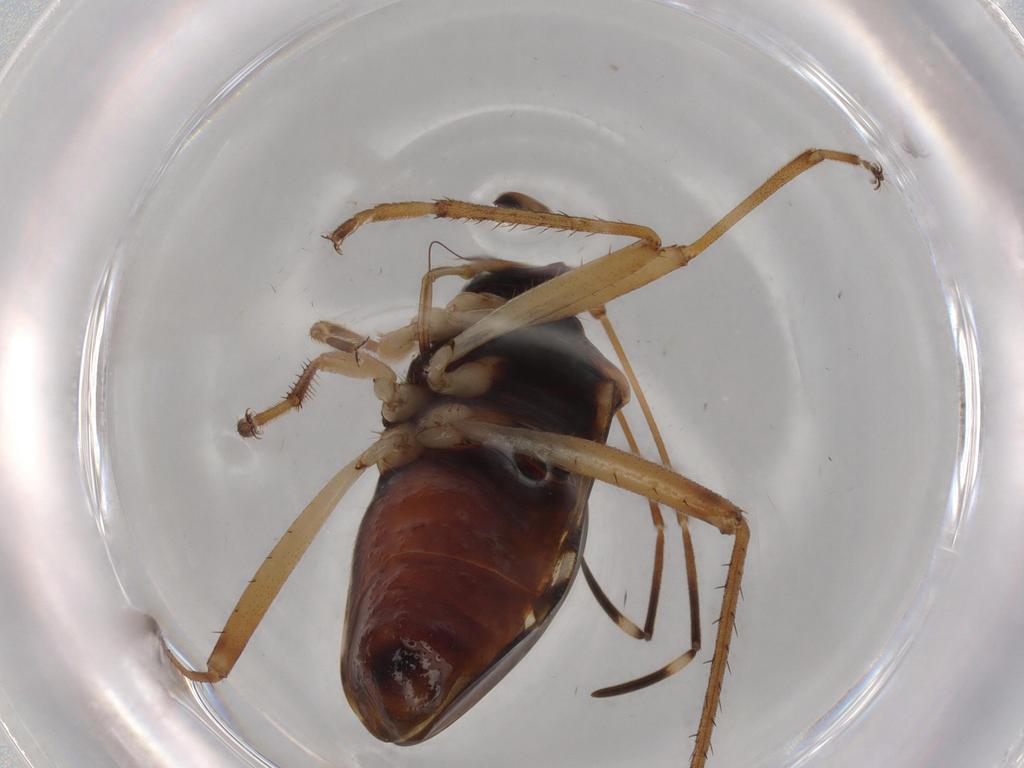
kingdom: Animalia
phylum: Arthropoda
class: Insecta
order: Hemiptera
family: Rhyparochromidae
